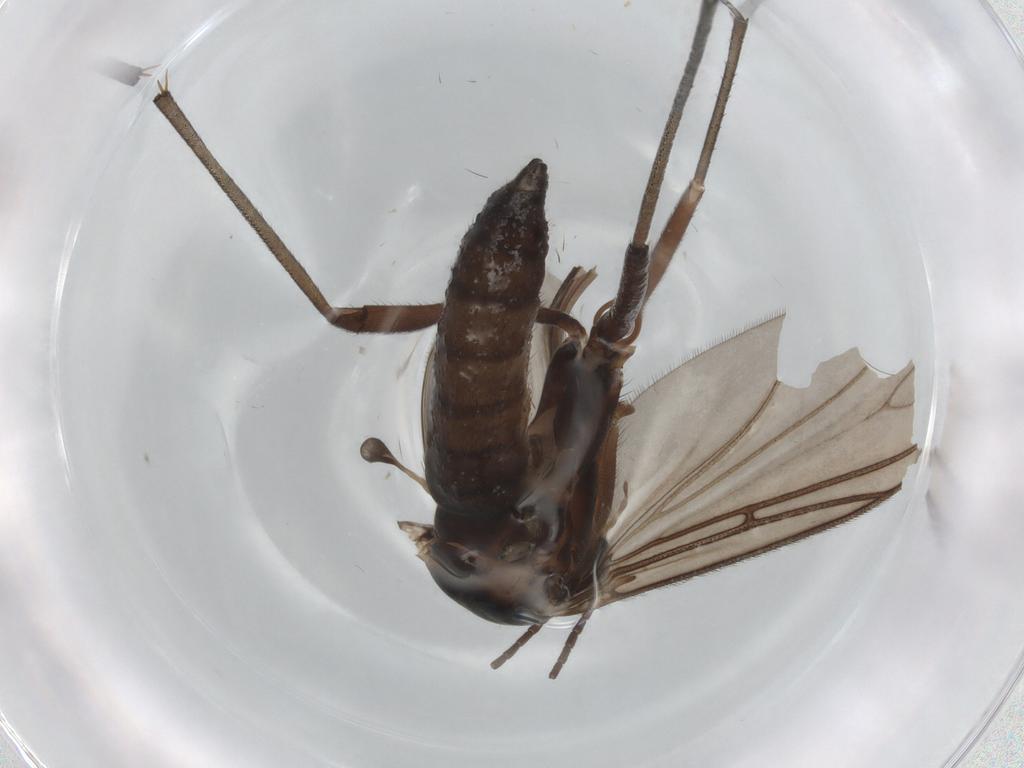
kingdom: Animalia
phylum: Arthropoda
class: Insecta
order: Diptera
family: Sciaridae
